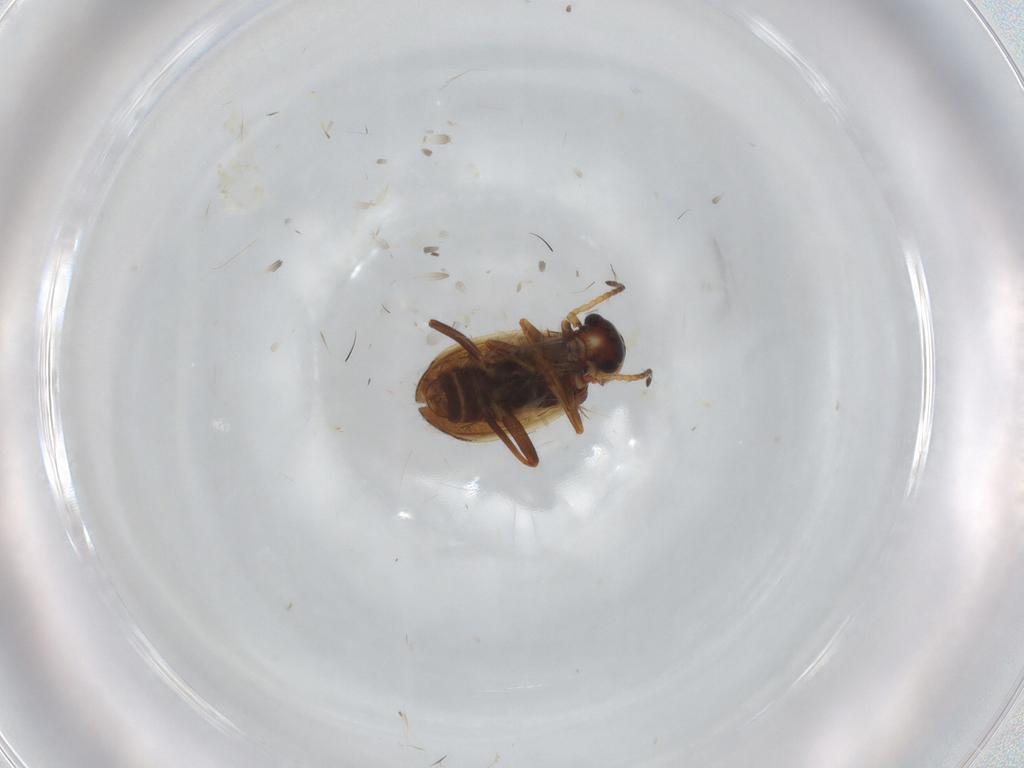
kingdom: Animalia
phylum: Arthropoda
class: Insecta
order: Coleoptera
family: Melyridae
